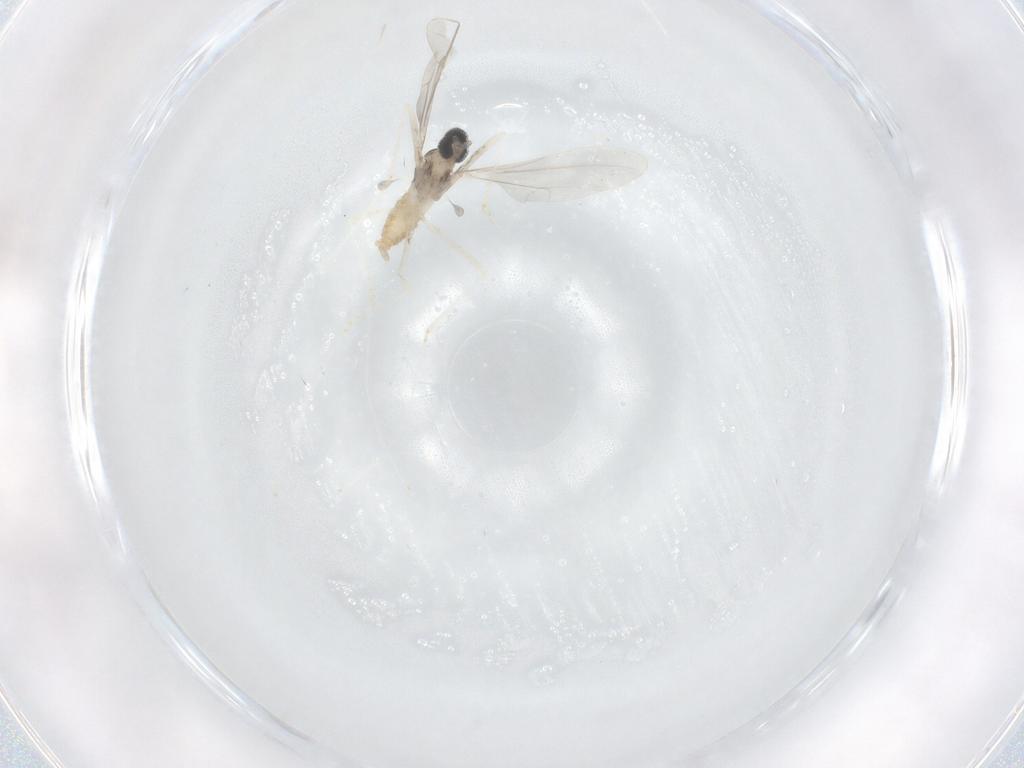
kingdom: Animalia
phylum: Arthropoda
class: Insecta
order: Diptera
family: Cecidomyiidae
